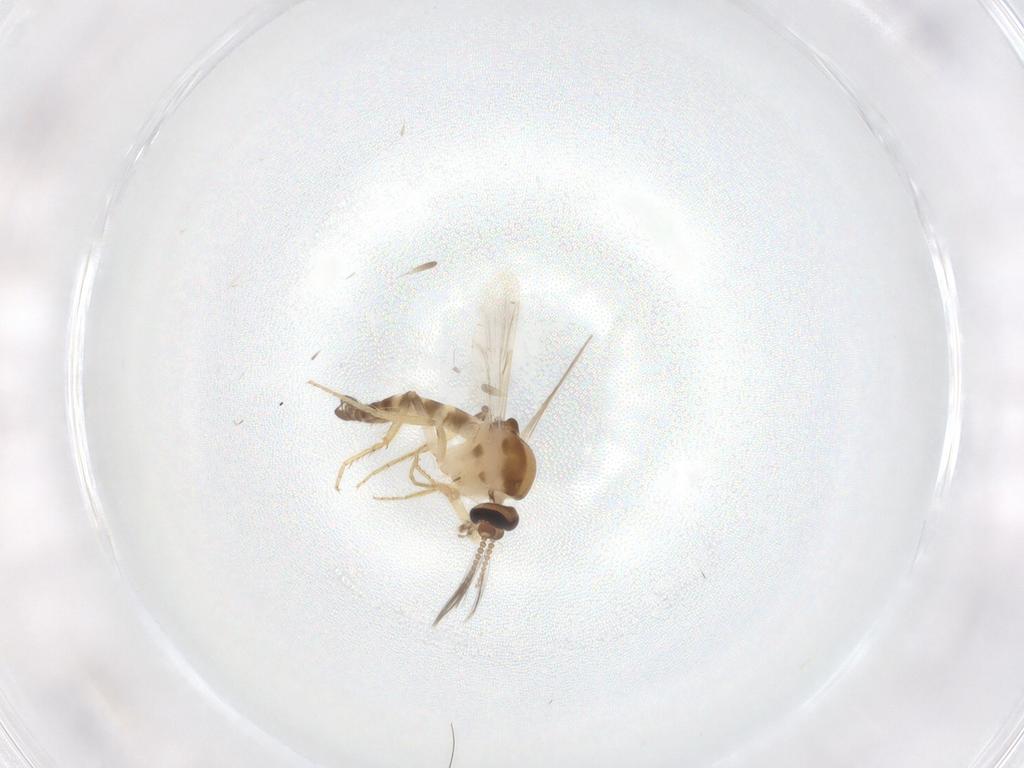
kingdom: Animalia
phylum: Arthropoda
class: Insecta
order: Diptera
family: Ceratopogonidae
